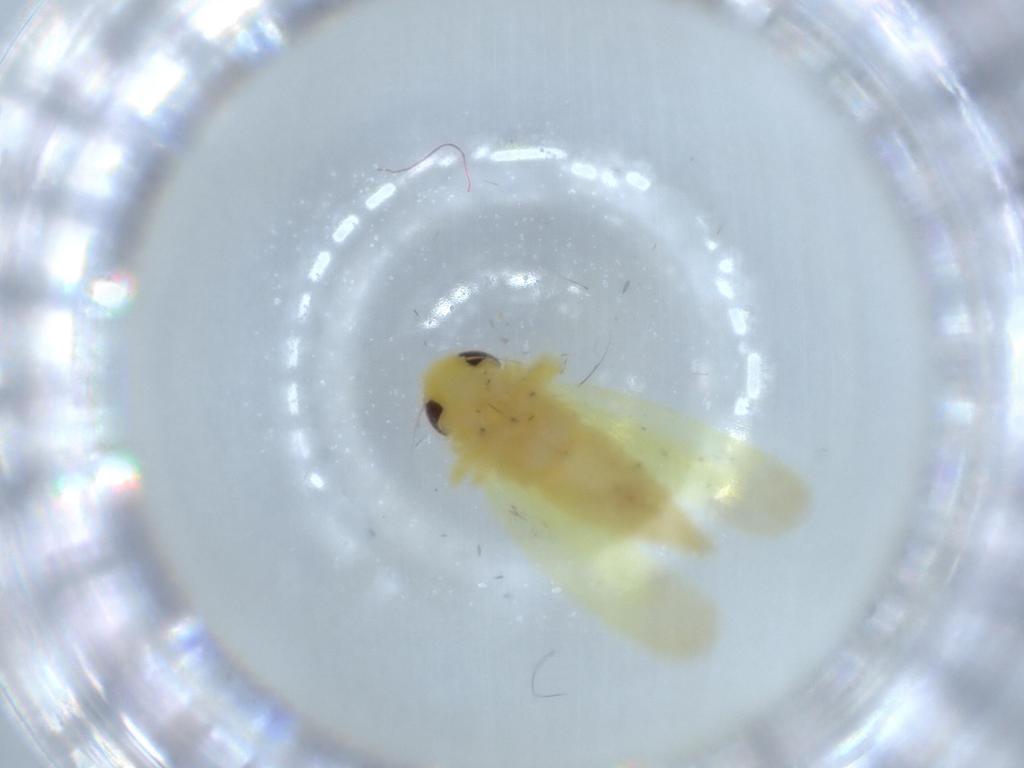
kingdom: Animalia
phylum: Arthropoda
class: Insecta
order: Hemiptera
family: Cicadellidae
